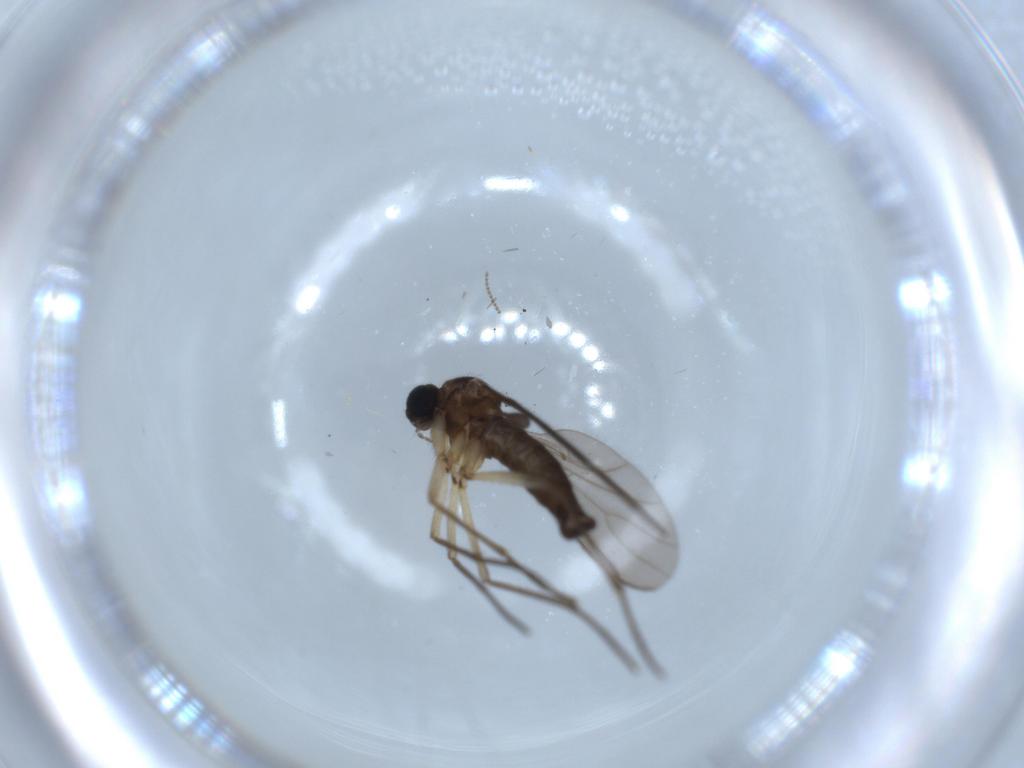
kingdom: Animalia
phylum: Arthropoda
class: Insecta
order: Diptera
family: Sciaridae
